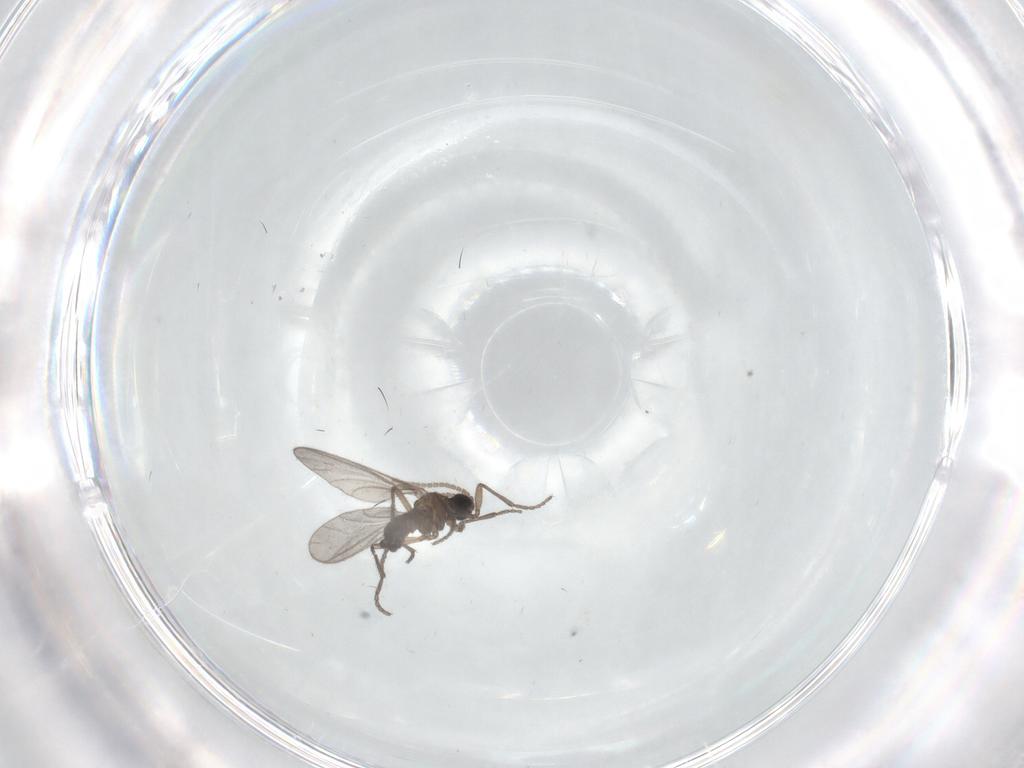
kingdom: Animalia
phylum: Arthropoda
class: Insecta
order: Diptera
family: Sciaridae
